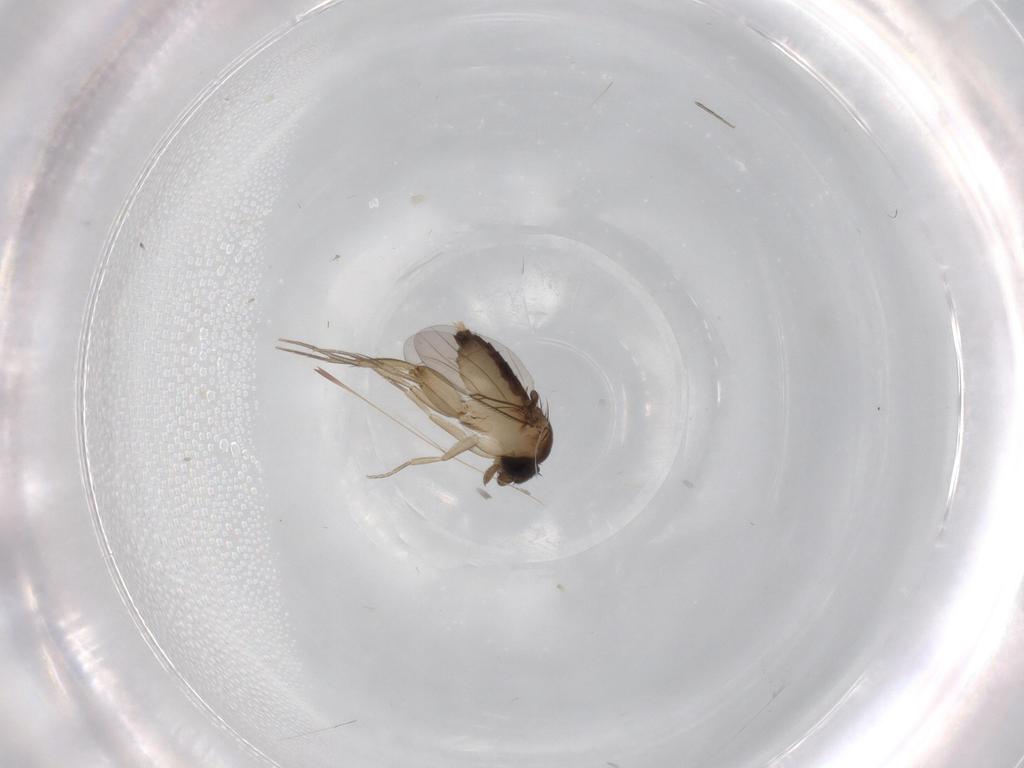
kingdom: Animalia
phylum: Arthropoda
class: Insecta
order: Diptera
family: Phoridae
